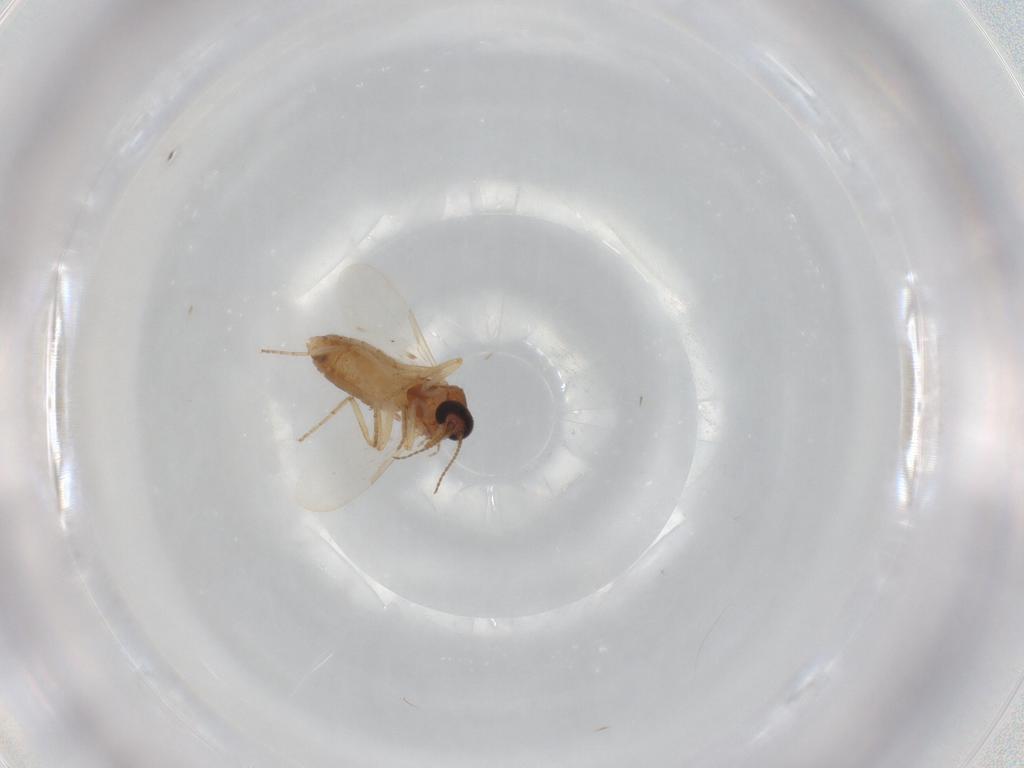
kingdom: Animalia
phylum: Arthropoda
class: Insecta
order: Diptera
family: Ceratopogonidae
